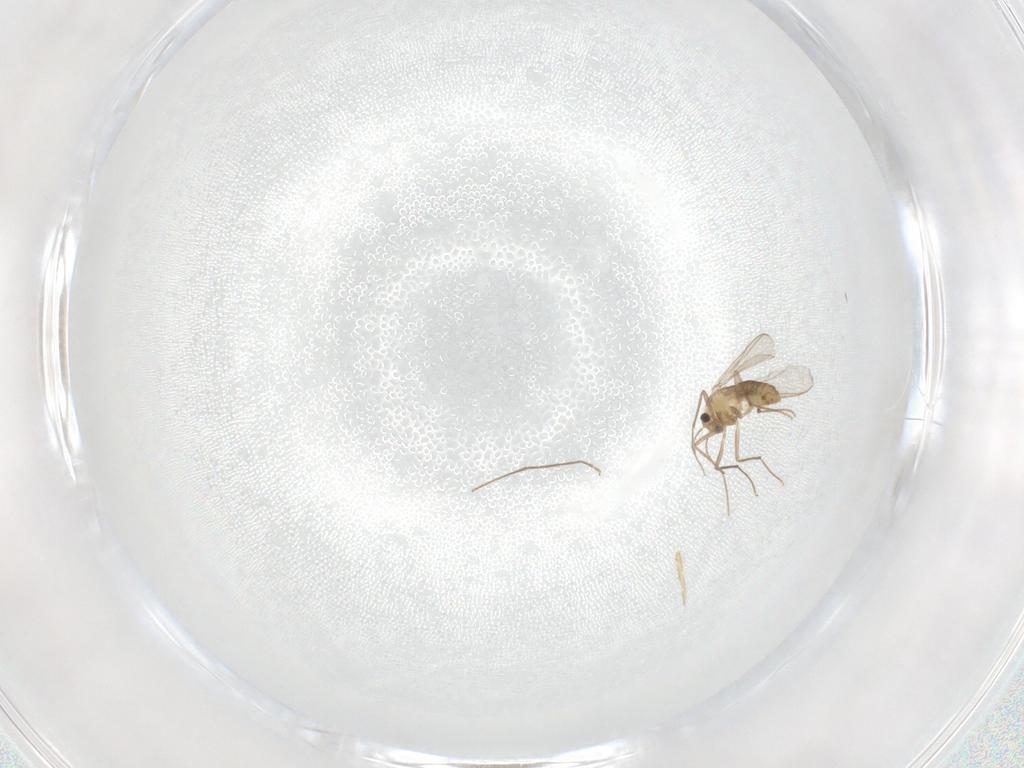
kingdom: Animalia
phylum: Arthropoda
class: Insecta
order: Diptera
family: Chironomidae
